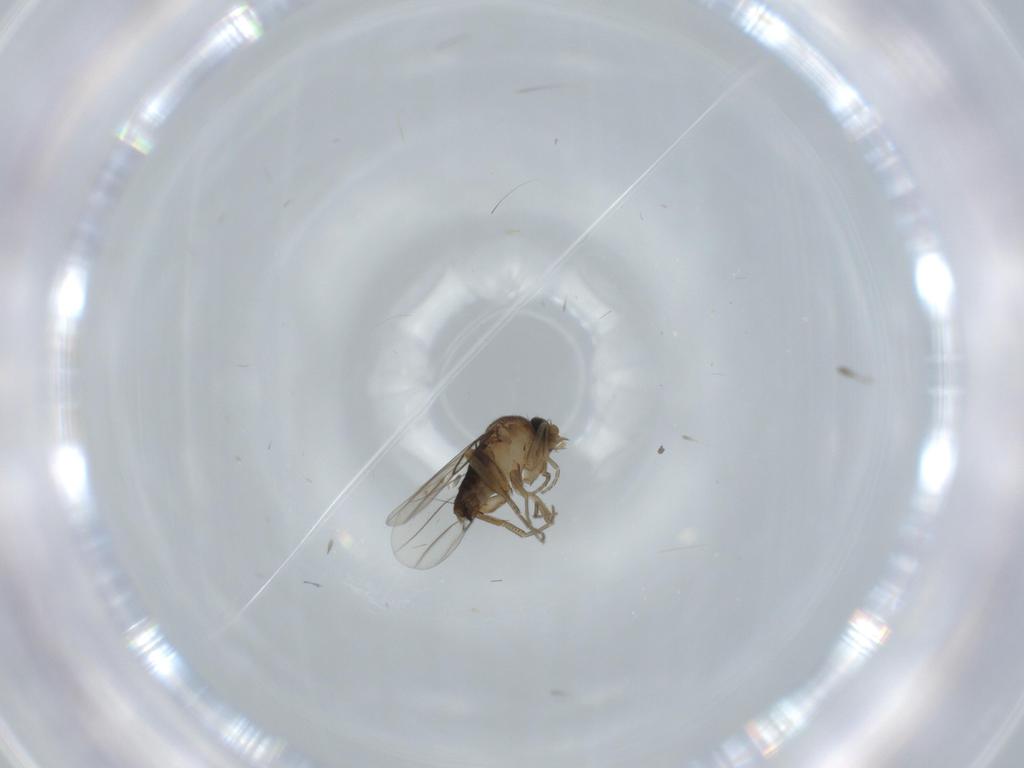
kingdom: Animalia
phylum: Arthropoda
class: Insecta
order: Diptera
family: Phoridae
